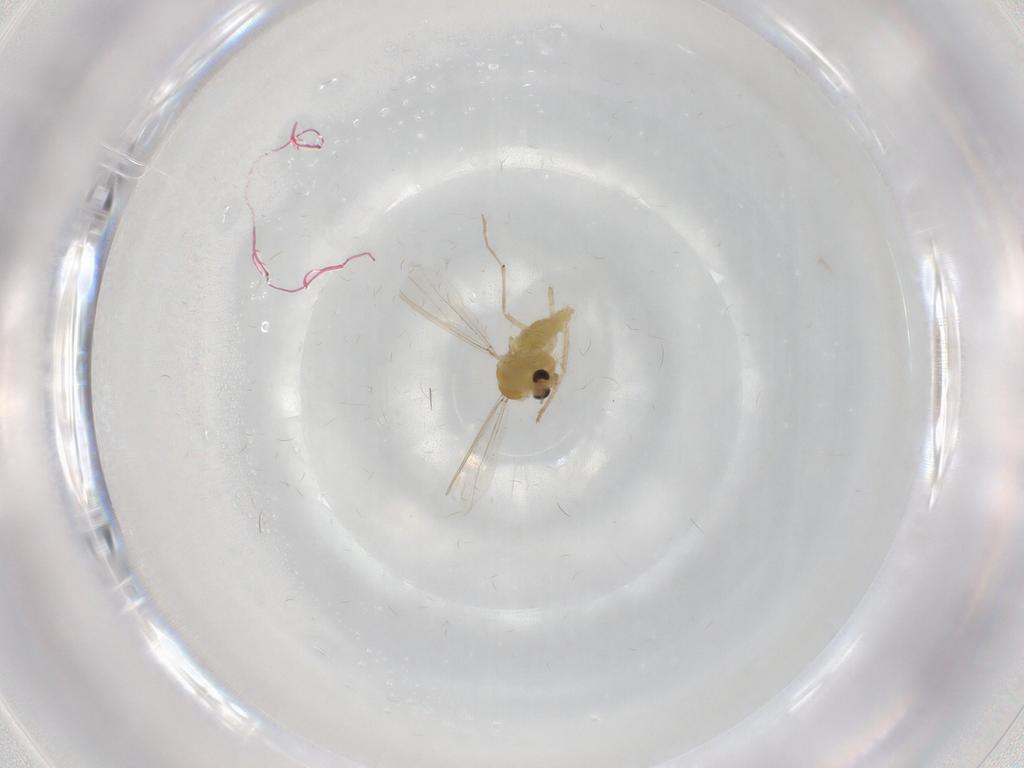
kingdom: Animalia
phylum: Arthropoda
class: Insecta
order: Diptera
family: Chironomidae
